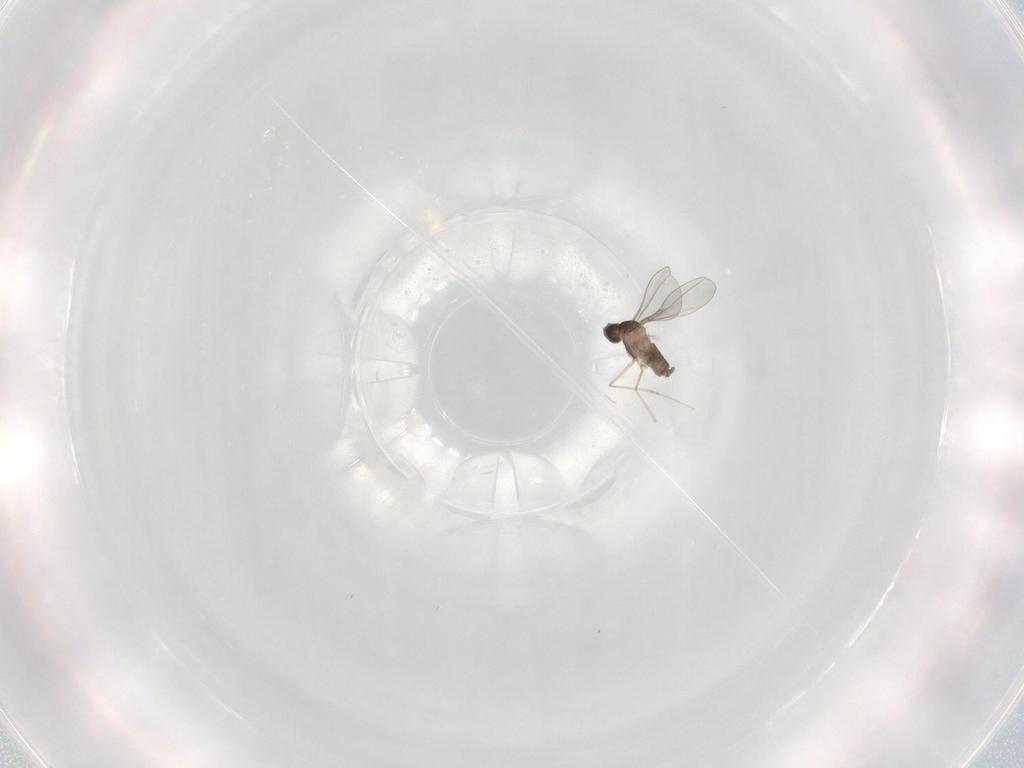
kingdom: Animalia
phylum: Arthropoda
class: Insecta
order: Diptera
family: Cecidomyiidae
